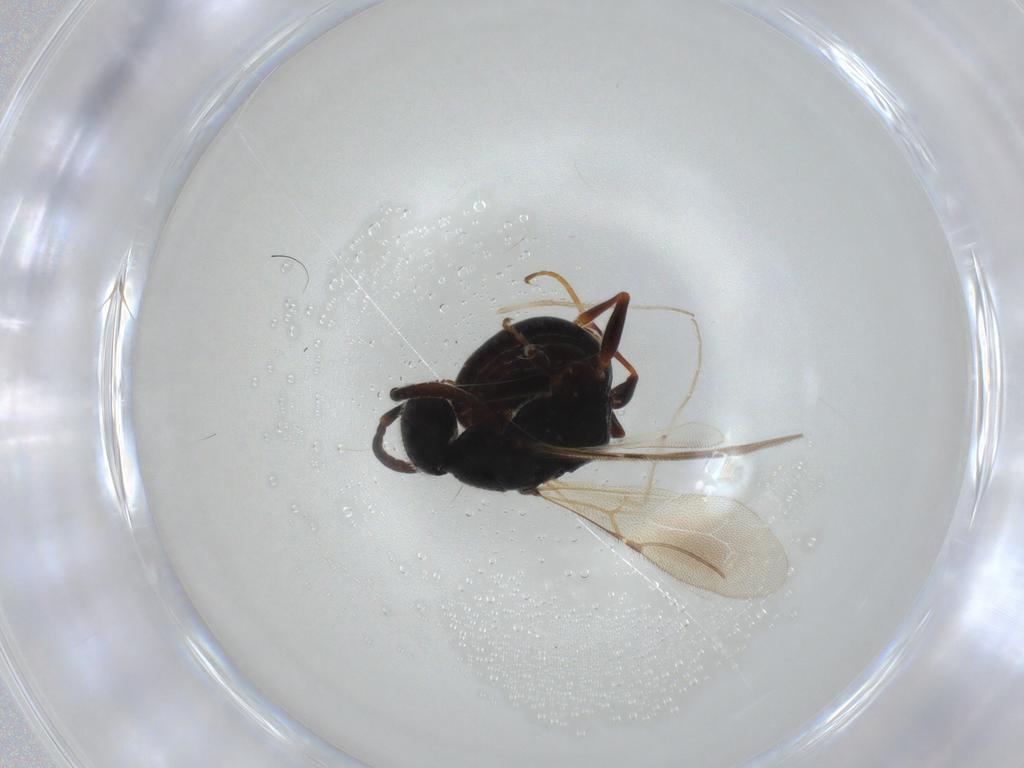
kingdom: Animalia
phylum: Arthropoda
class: Insecta
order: Hymenoptera
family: Bethylidae
